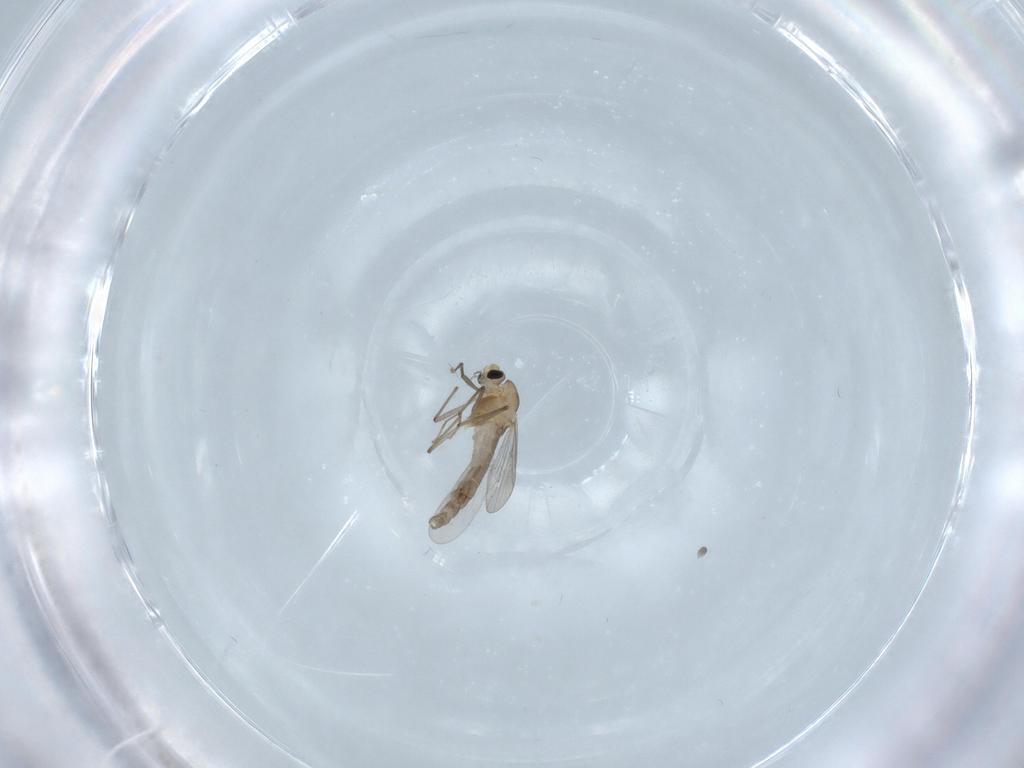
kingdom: Animalia
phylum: Arthropoda
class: Insecta
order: Diptera
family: Chironomidae
